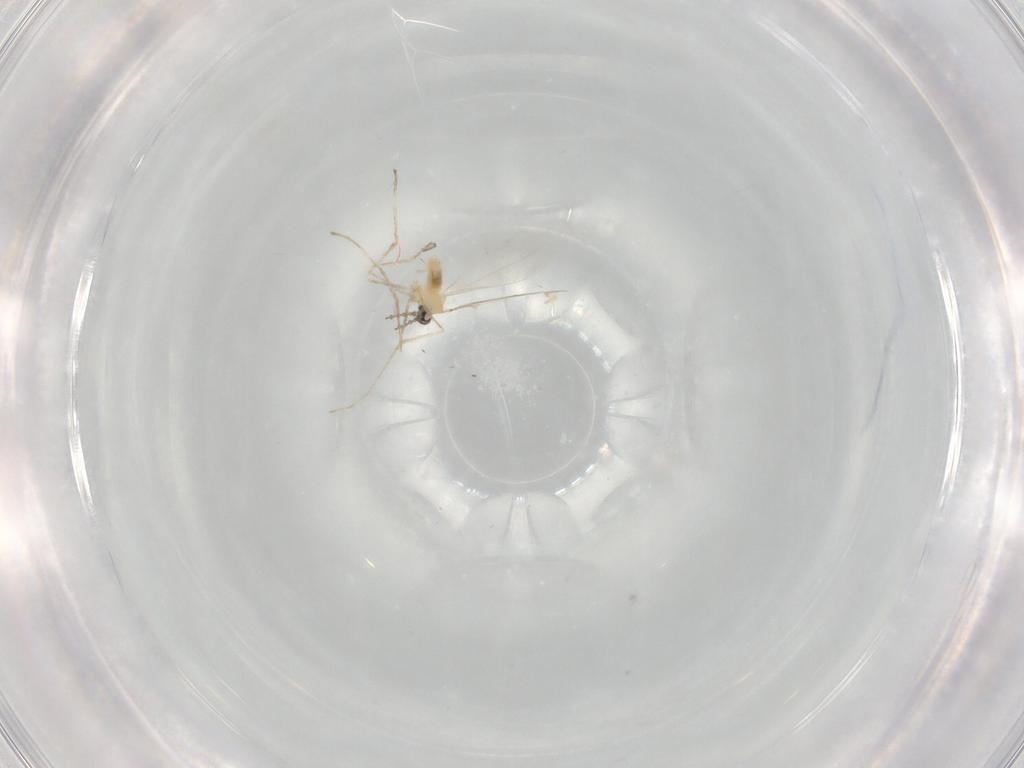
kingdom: Animalia
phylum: Arthropoda
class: Insecta
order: Diptera
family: Cecidomyiidae
